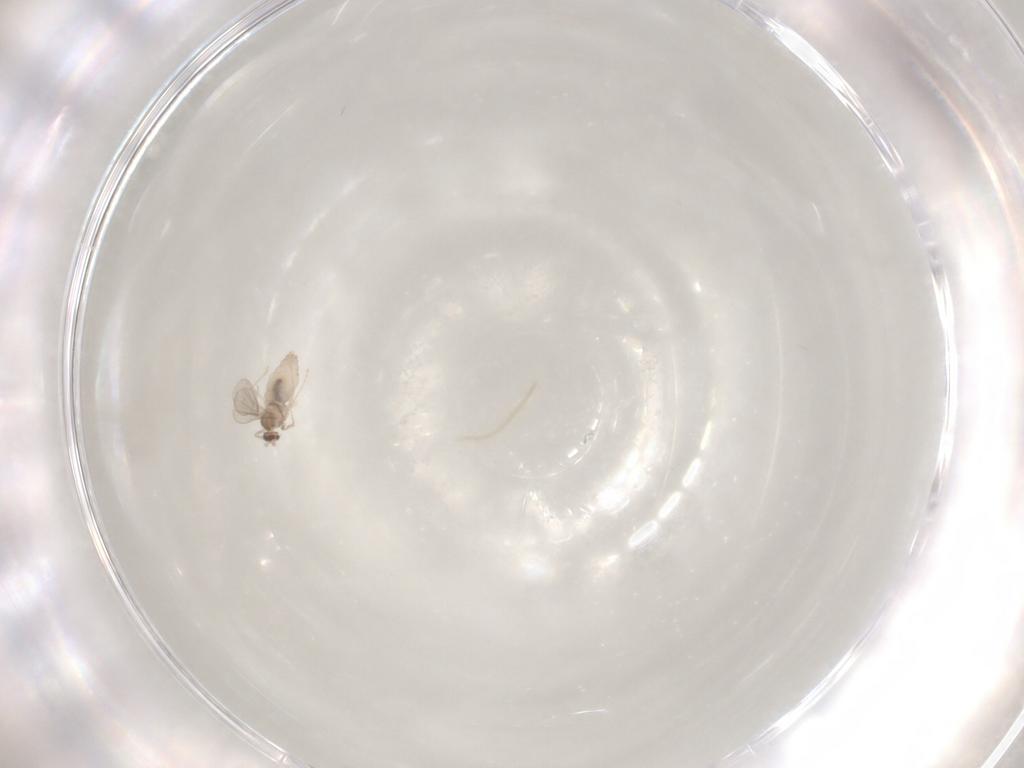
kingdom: Animalia
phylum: Arthropoda
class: Insecta
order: Diptera
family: Cecidomyiidae
